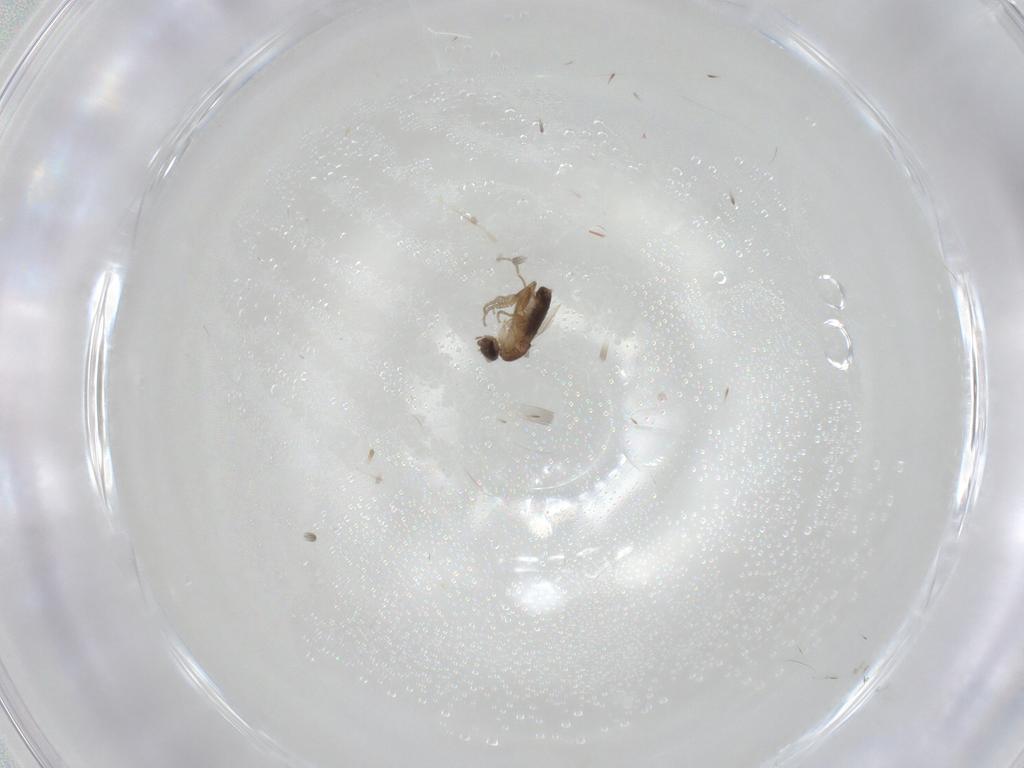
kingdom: Animalia
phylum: Arthropoda
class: Insecta
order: Diptera
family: Phoridae
